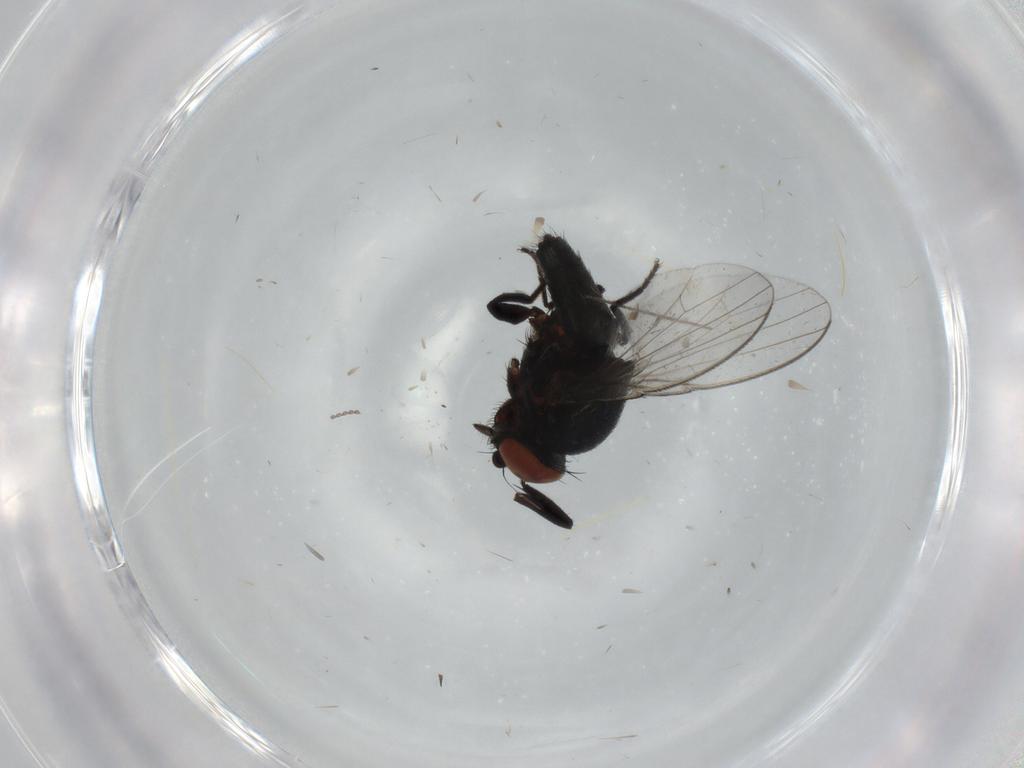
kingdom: Animalia
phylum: Arthropoda
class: Insecta
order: Diptera
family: Milichiidae
